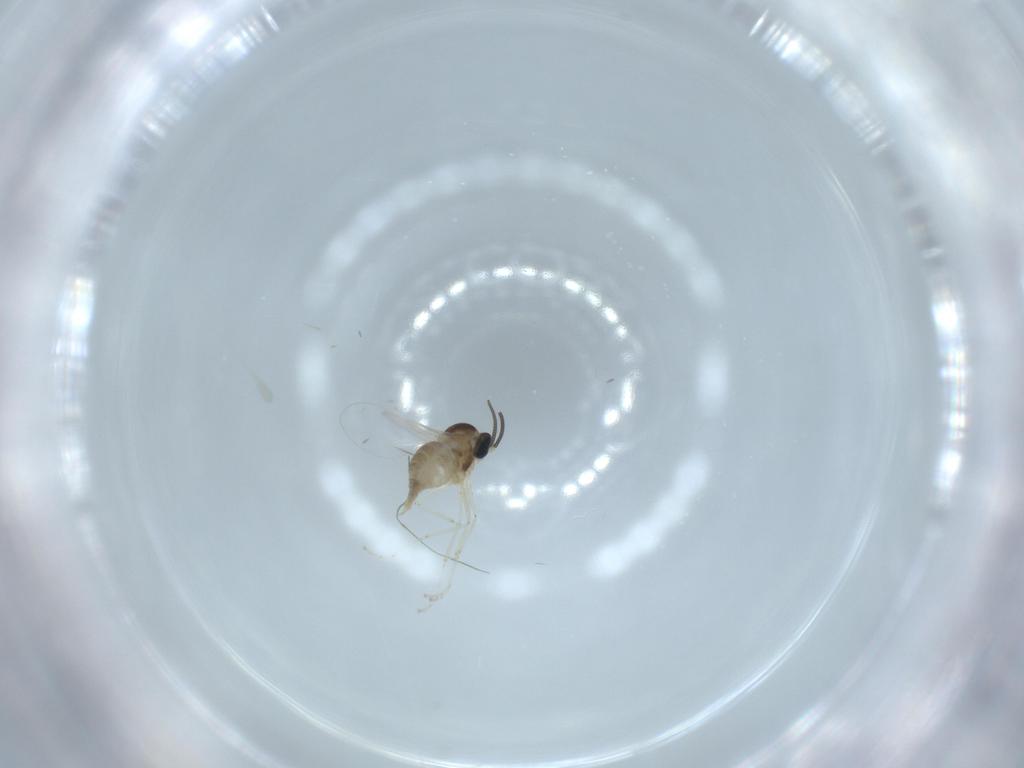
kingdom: Animalia
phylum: Arthropoda
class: Insecta
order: Diptera
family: Cecidomyiidae
